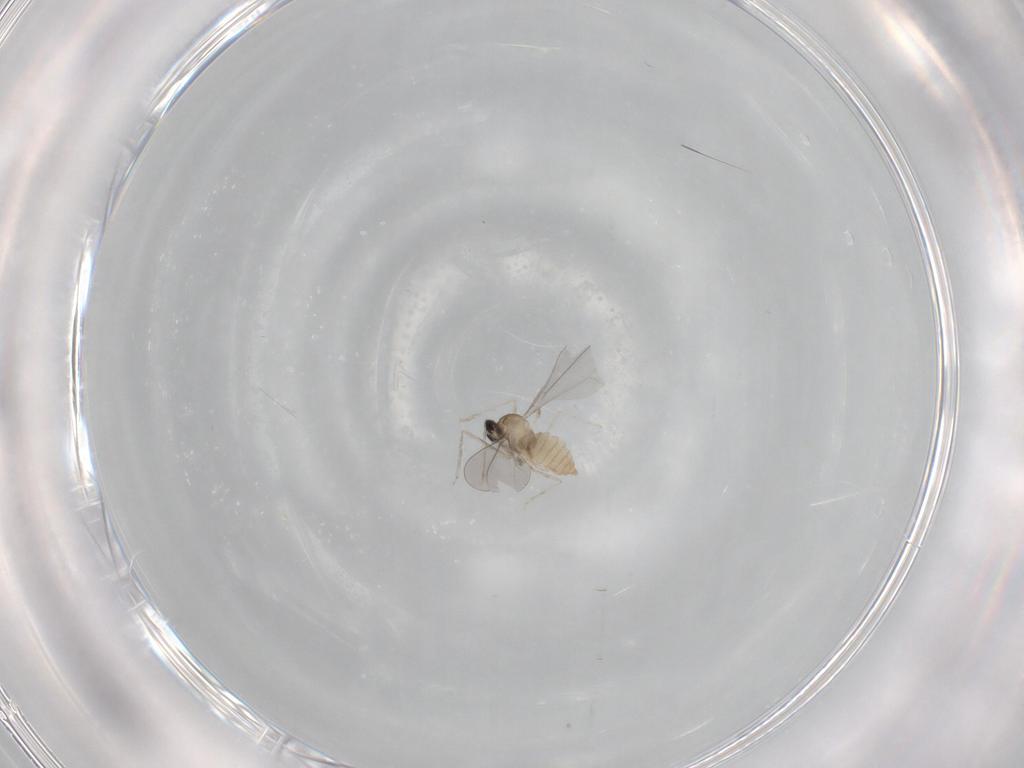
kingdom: Animalia
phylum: Arthropoda
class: Insecta
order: Diptera
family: Cecidomyiidae
